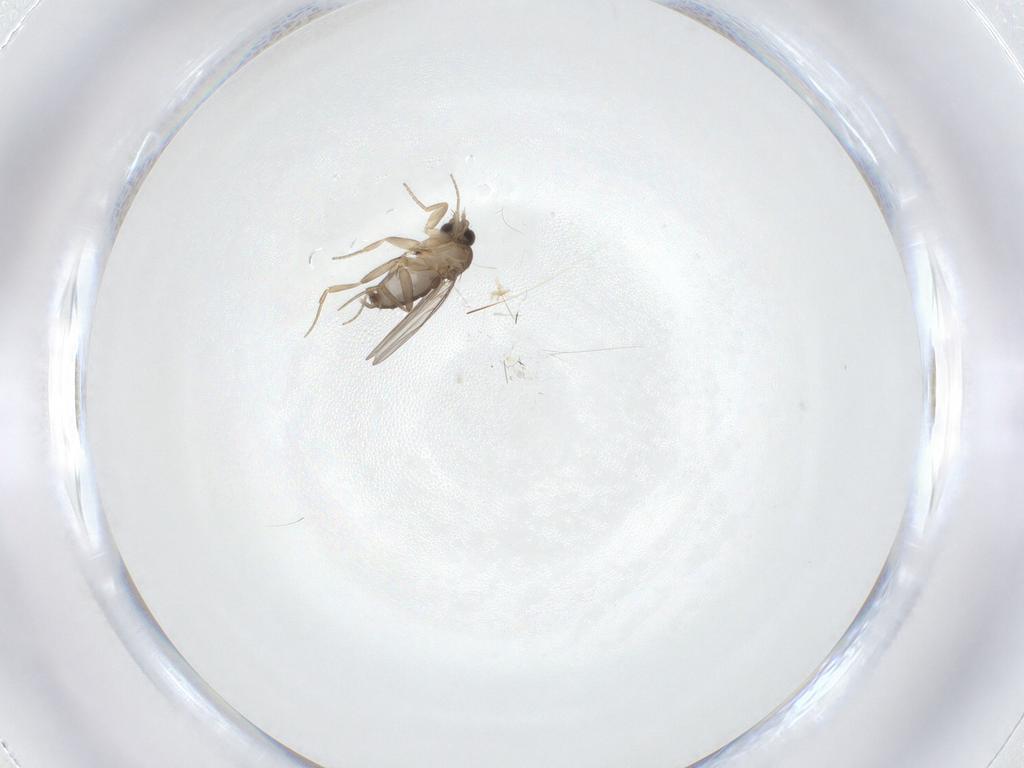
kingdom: Animalia
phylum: Arthropoda
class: Insecta
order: Diptera
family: Phoridae
